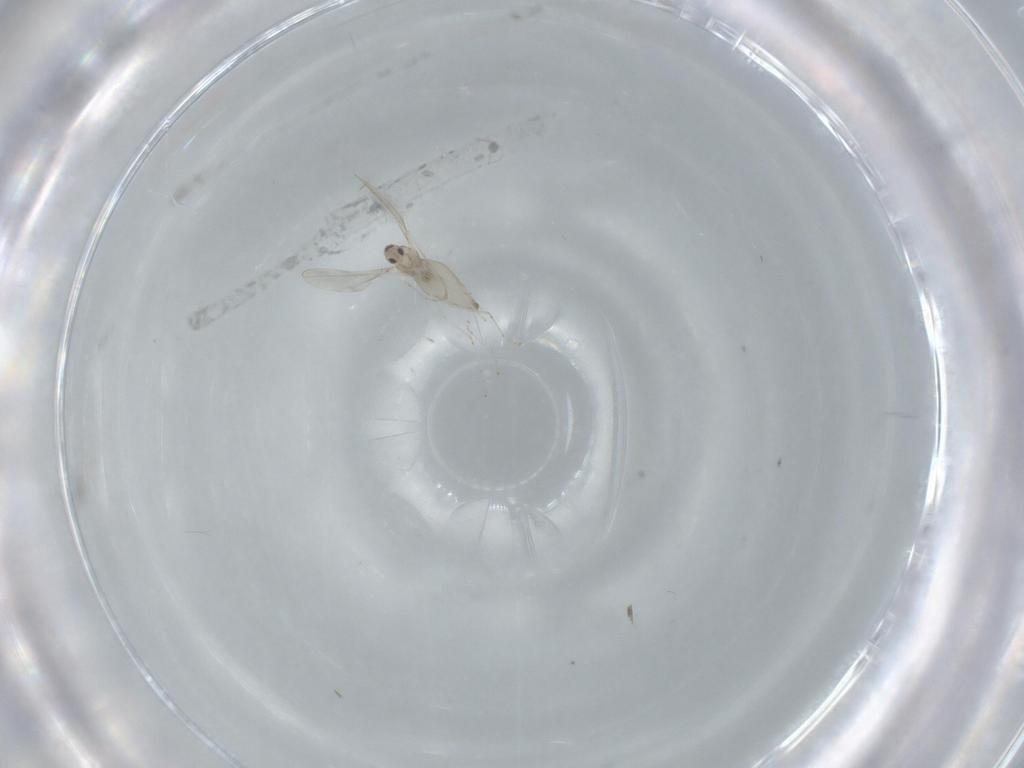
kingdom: Animalia
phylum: Arthropoda
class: Insecta
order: Diptera
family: Cecidomyiidae
